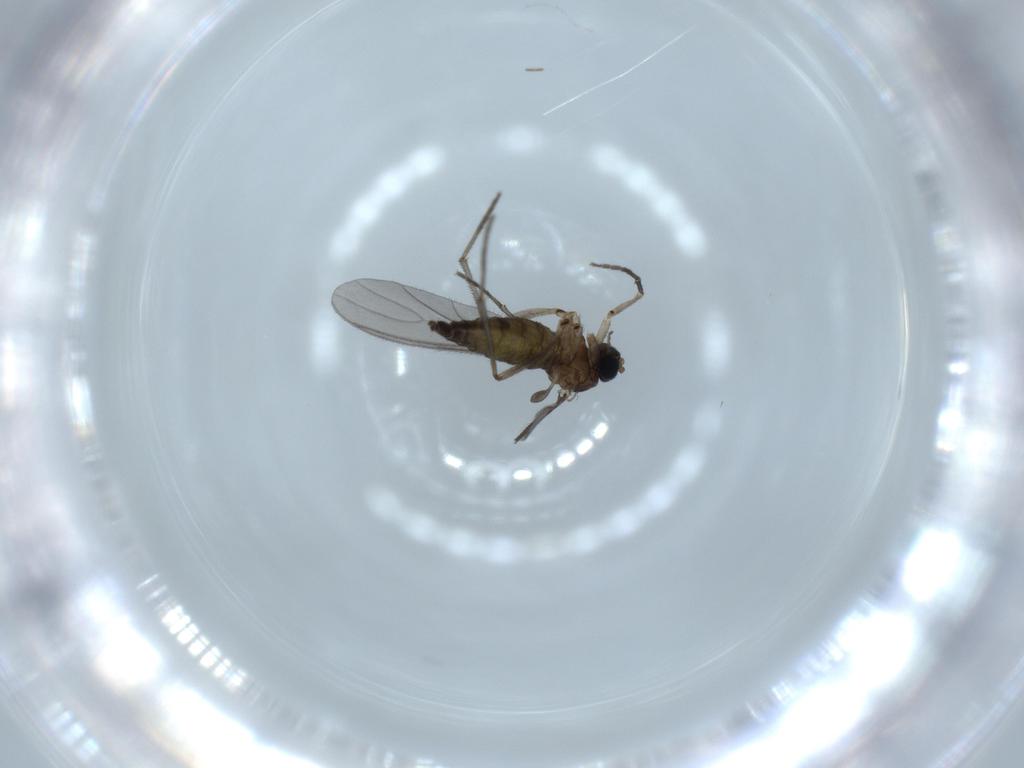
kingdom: Animalia
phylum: Arthropoda
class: Insecta
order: Diptera
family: Sciaridae
